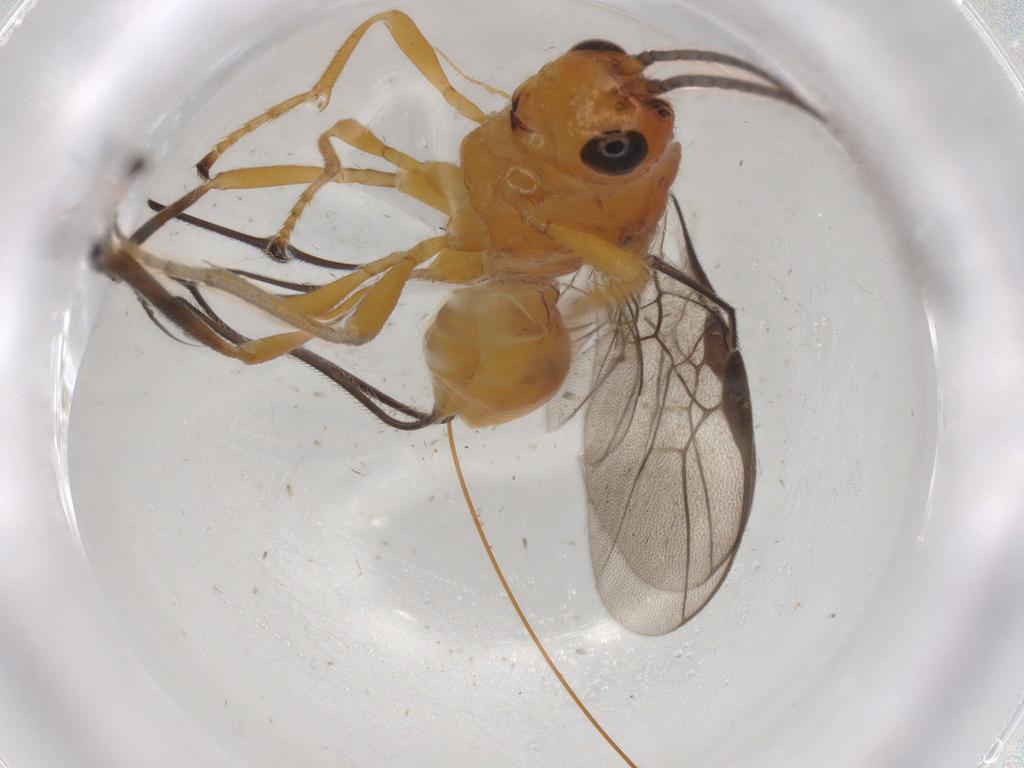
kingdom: Animalia
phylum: Arthropoda
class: Insecta
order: Hymenoptera
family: Braconidae
